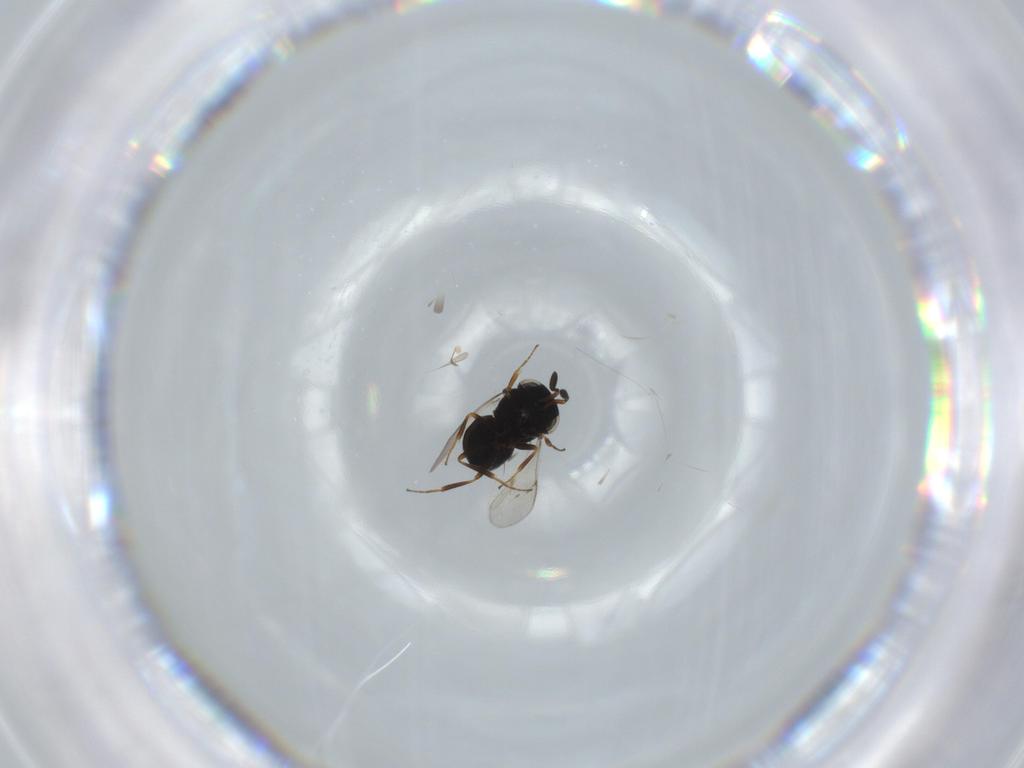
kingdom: Animalia
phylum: Arthropoda
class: Insecta
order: Hymenoptera
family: Scelionidae
